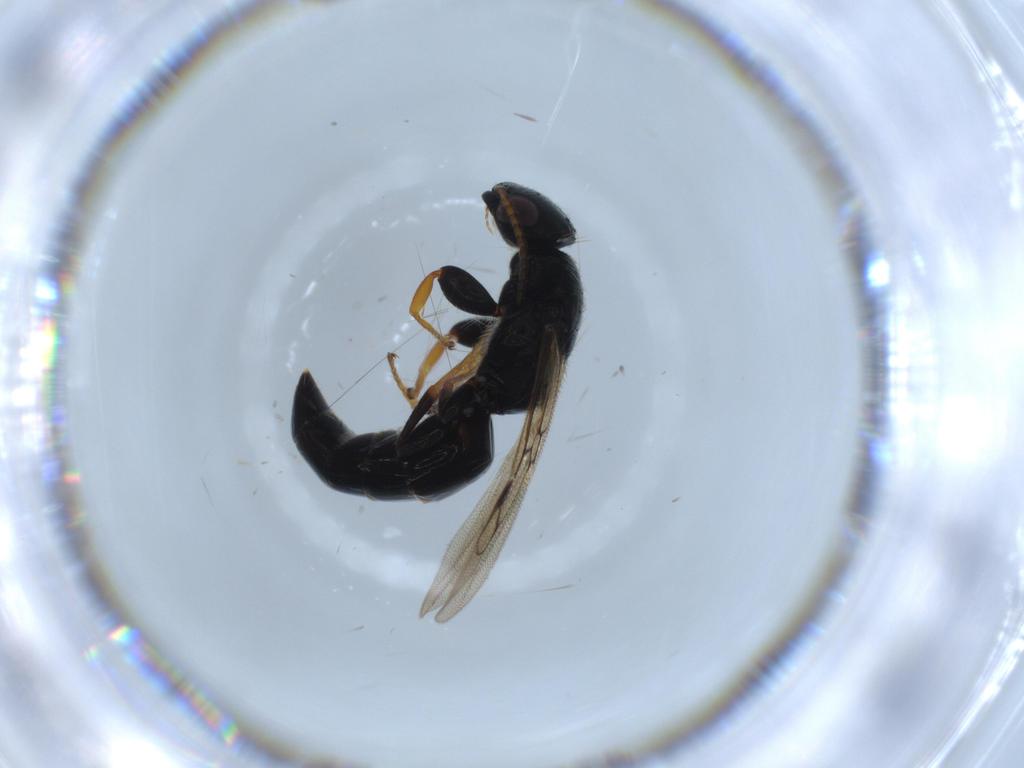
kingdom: Animalia
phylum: Arthropoda
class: Insecta
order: Hymenoptera
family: Bethylidae
